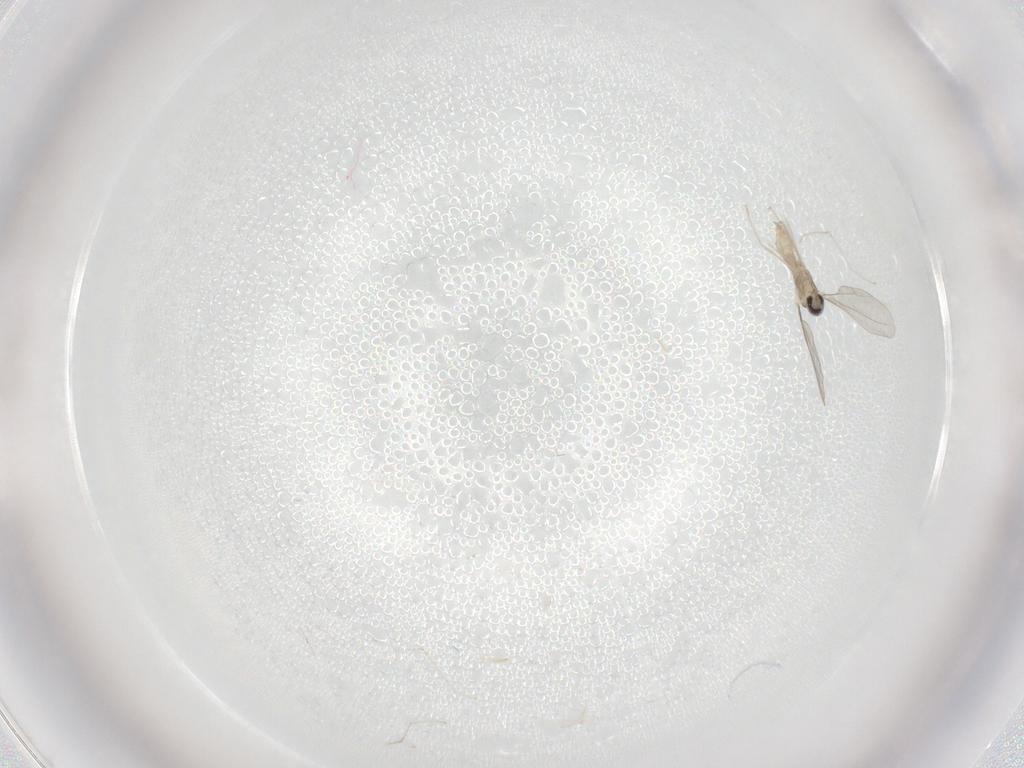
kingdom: Animalia
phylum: Arthropoda
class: Insecta
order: Diptera
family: Cecidomyiidae
